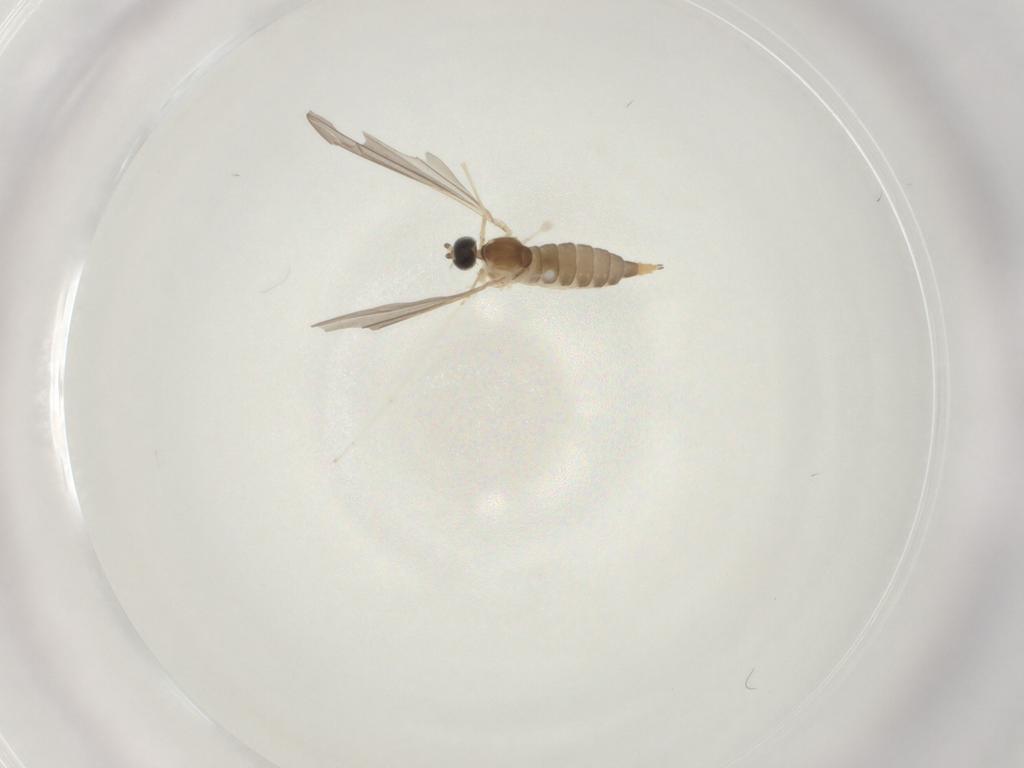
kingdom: Animalia
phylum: Arthropoda
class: Insecta
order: Diptera
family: Cecidomyiidae
